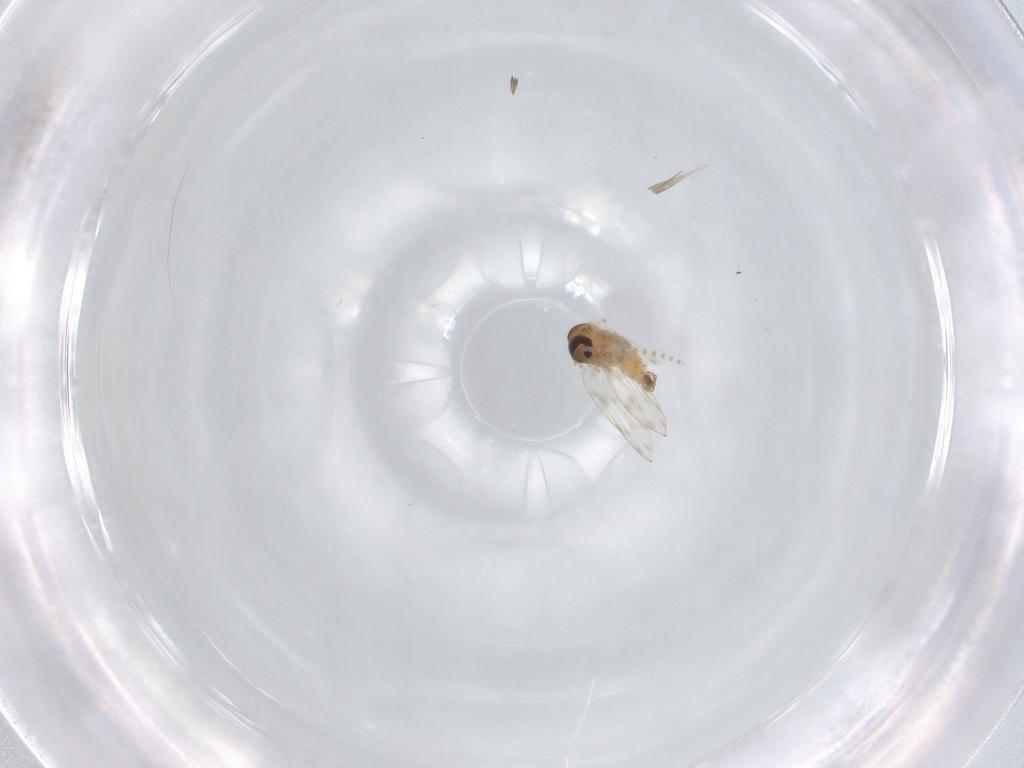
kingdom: Animalia
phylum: Arthropoda
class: Insecta
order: Diptera
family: Psychodidae
